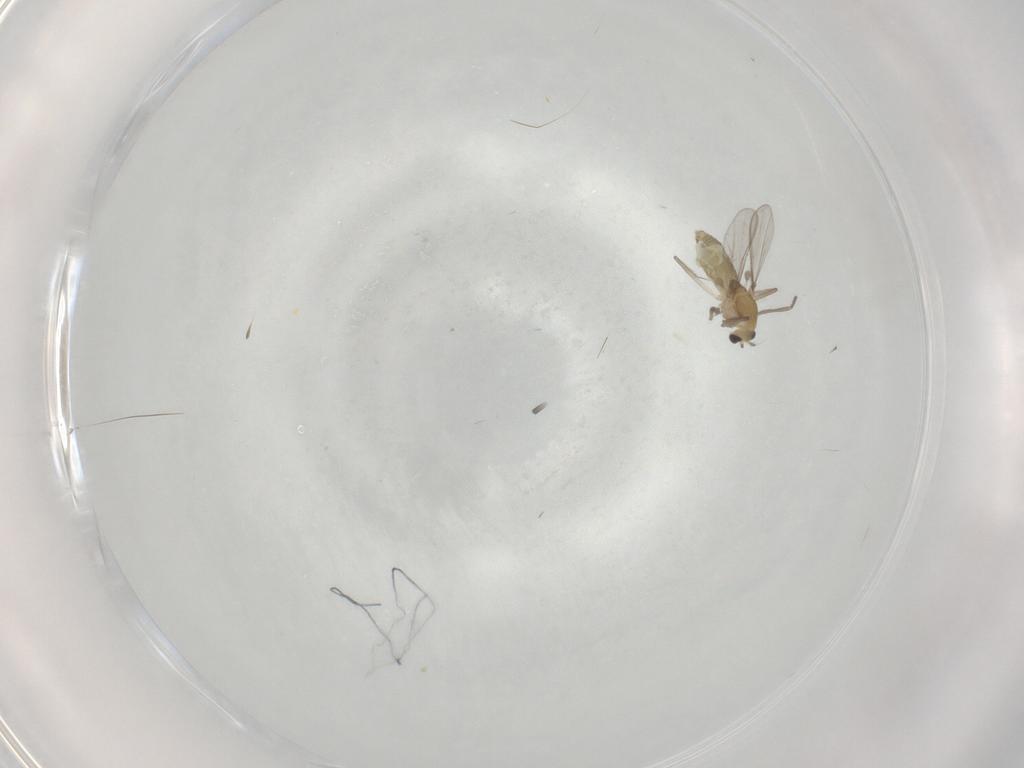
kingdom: Animalia
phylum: Arthropoda
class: Insecta
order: Diptera
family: Chironomidae
